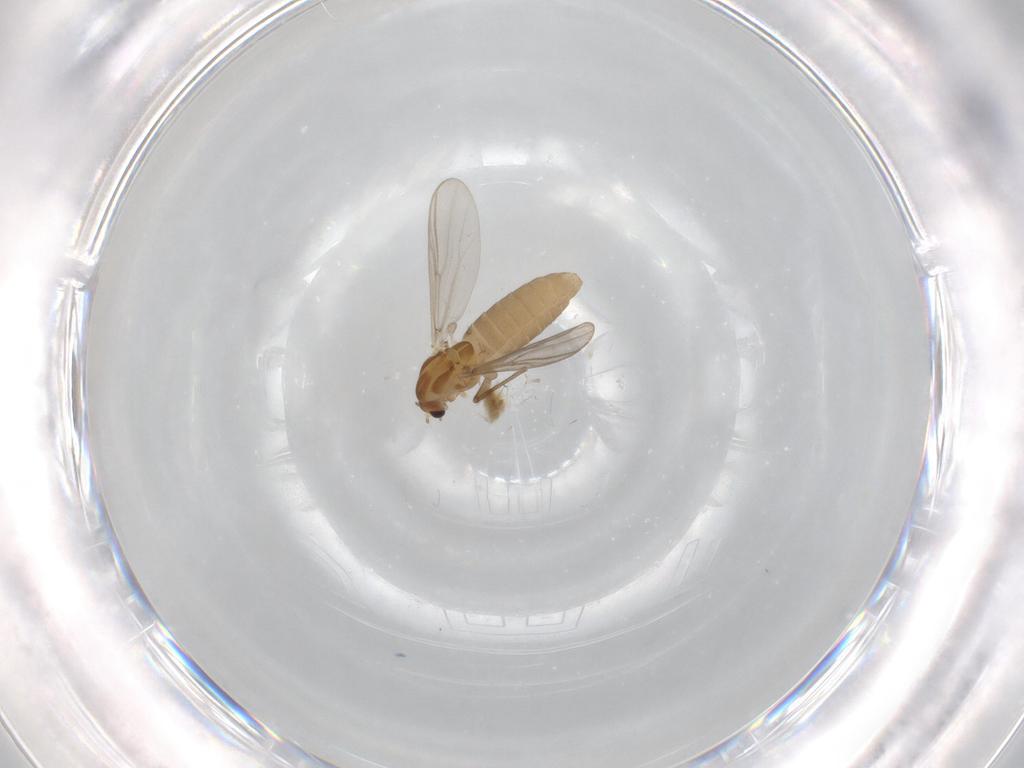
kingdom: Animalia
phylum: Arthropoda
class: Insecta
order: Diptera
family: Chironomidae
